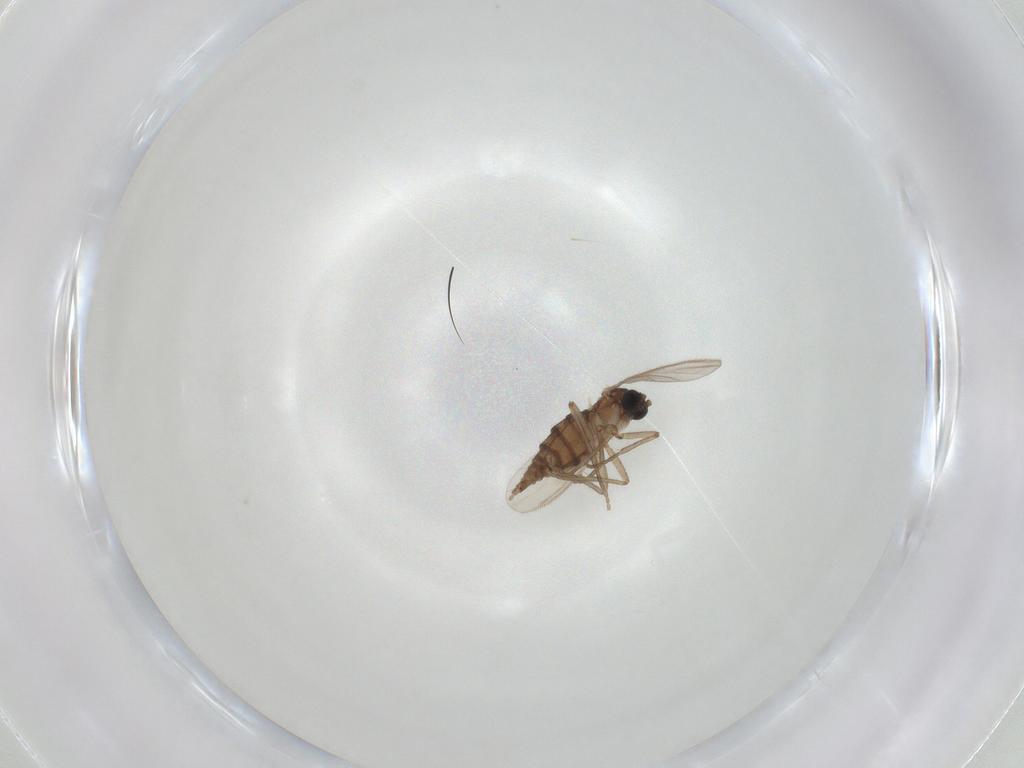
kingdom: Animalia
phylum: Arthropoda
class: Insecta
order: Diptera
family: Sciaridae
